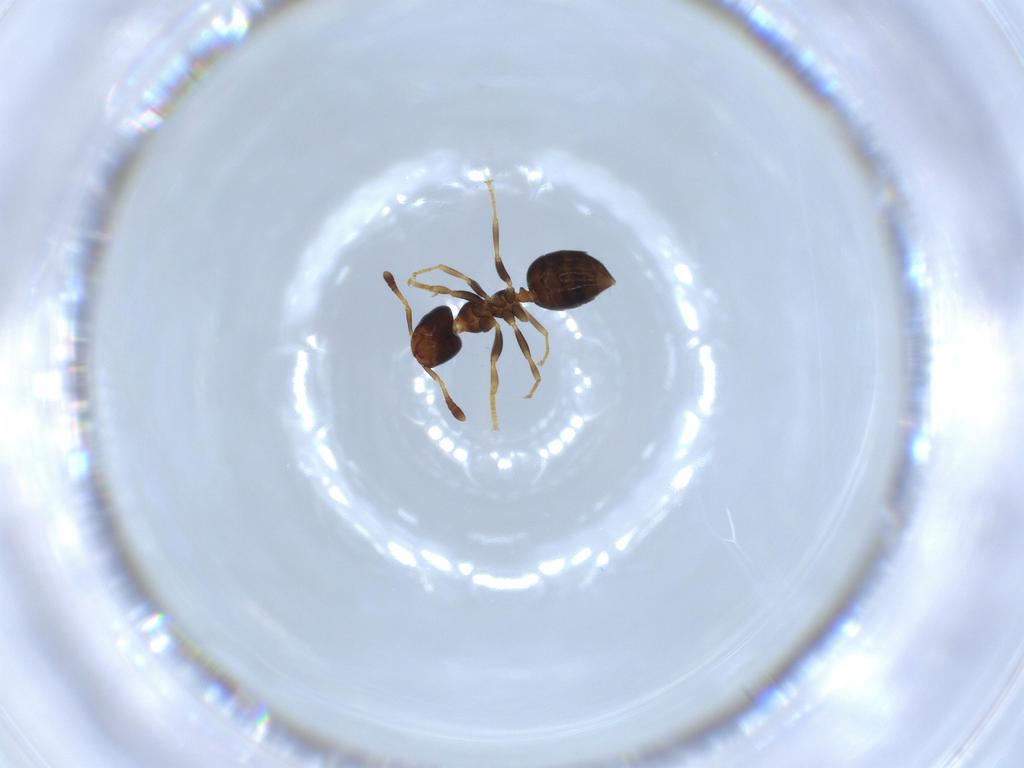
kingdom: Animalia
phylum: Arthropoda
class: Insecta
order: Hymenoptera
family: Formicidae
